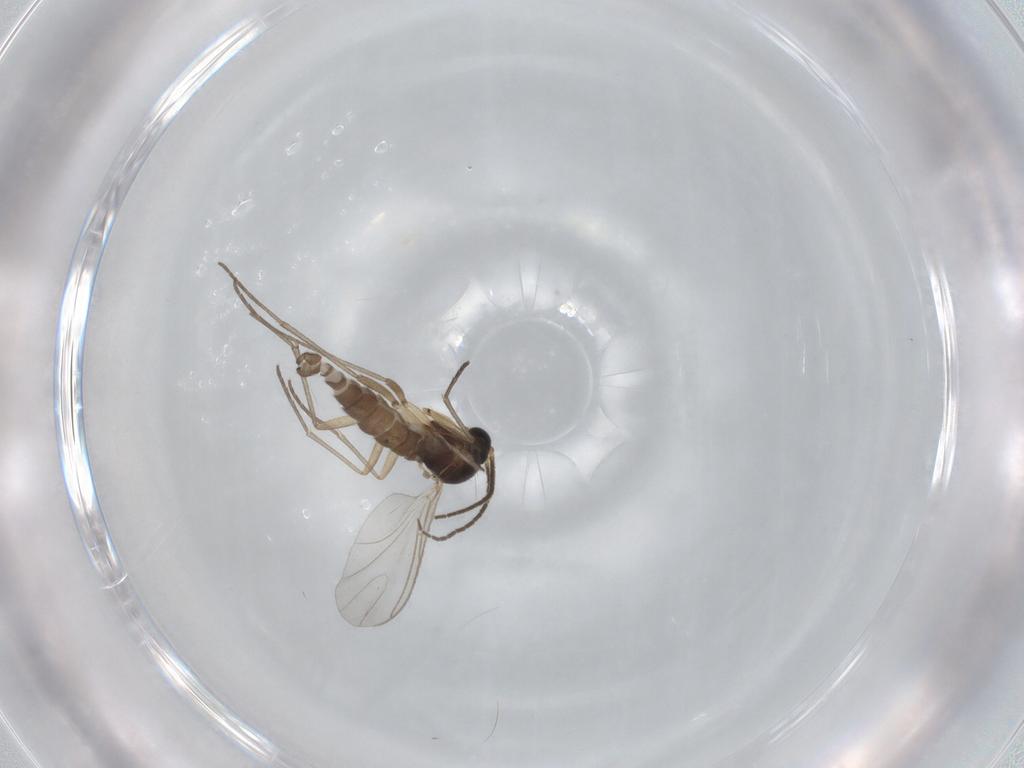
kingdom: Animalia
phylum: Arthropoda
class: Insecta
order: Diptera
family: Sciaridae
